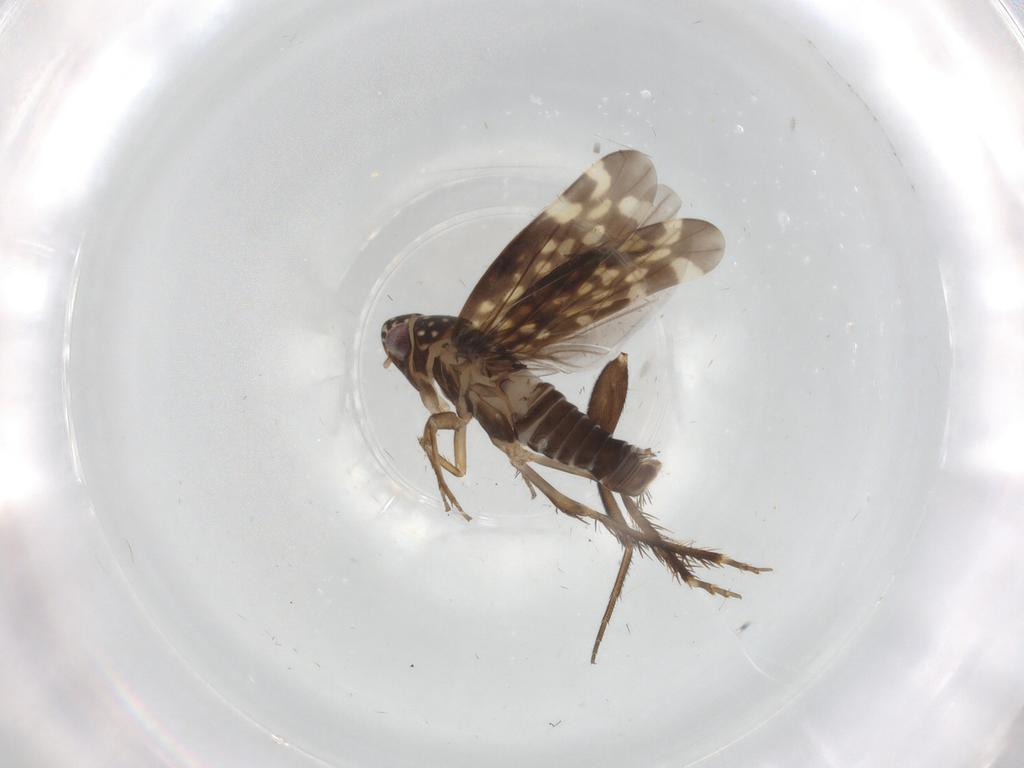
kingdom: Animalia
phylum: Arthropoda
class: Insecta
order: Hemiptera
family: Cicadellidae
